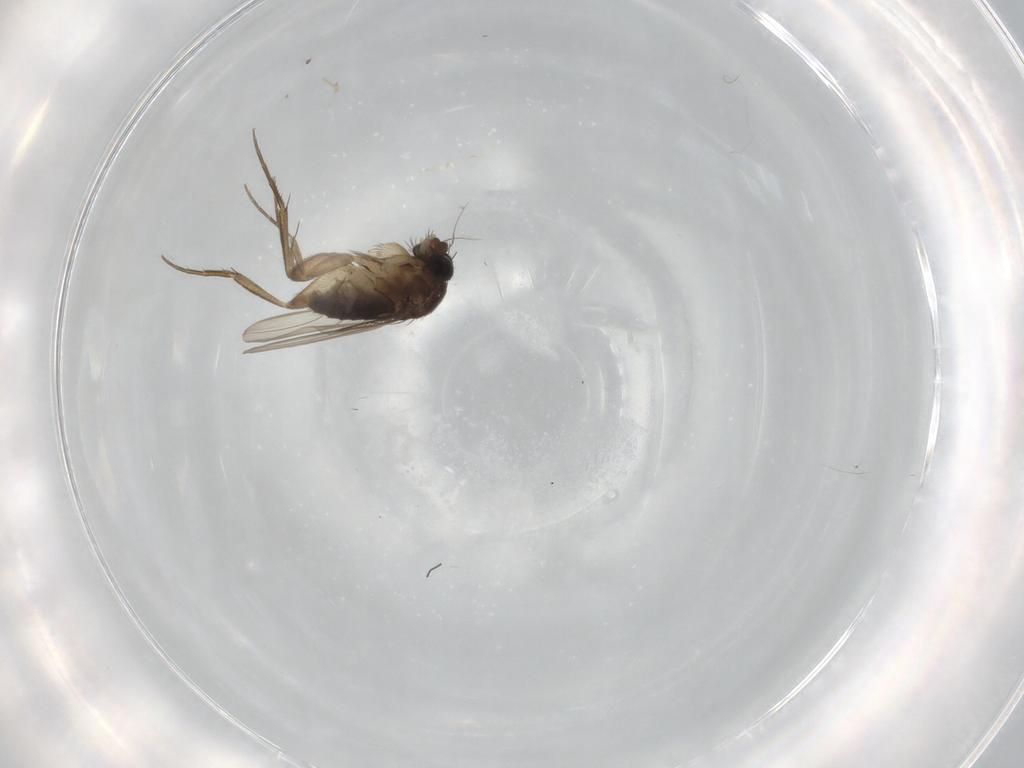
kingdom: Animalia
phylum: Arthropoda
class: Insecta
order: Diptera
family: Phoridae
